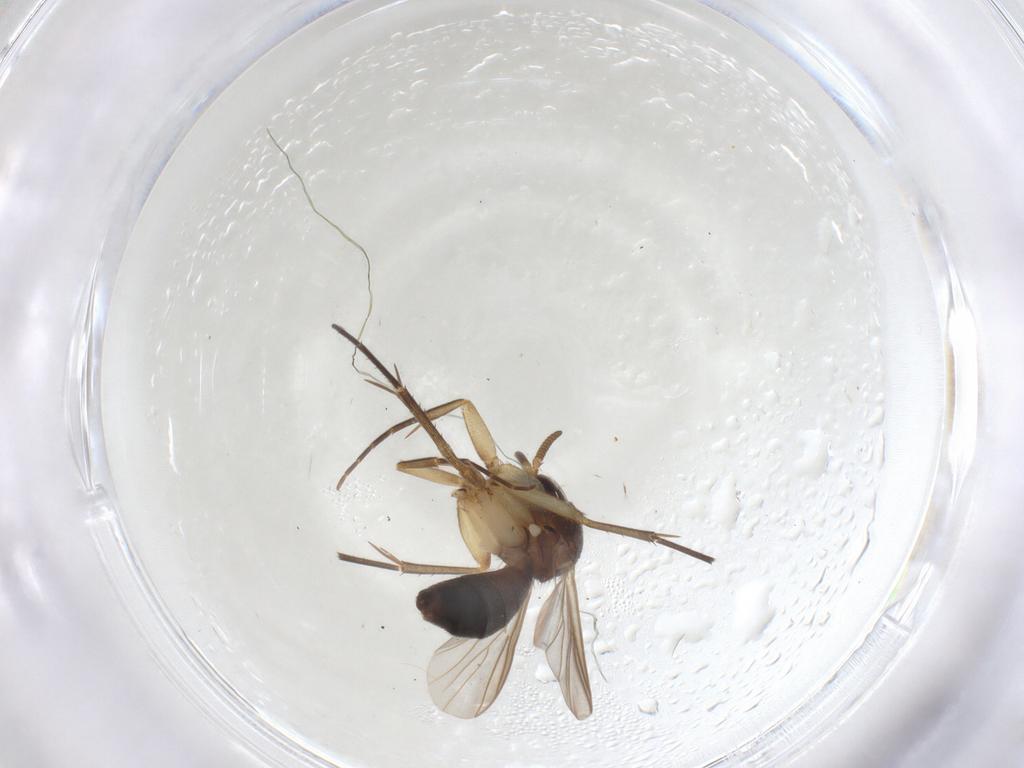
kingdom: Animalia
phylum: Arthropoda
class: Insecta
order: Diptera
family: Mycetophilidae
